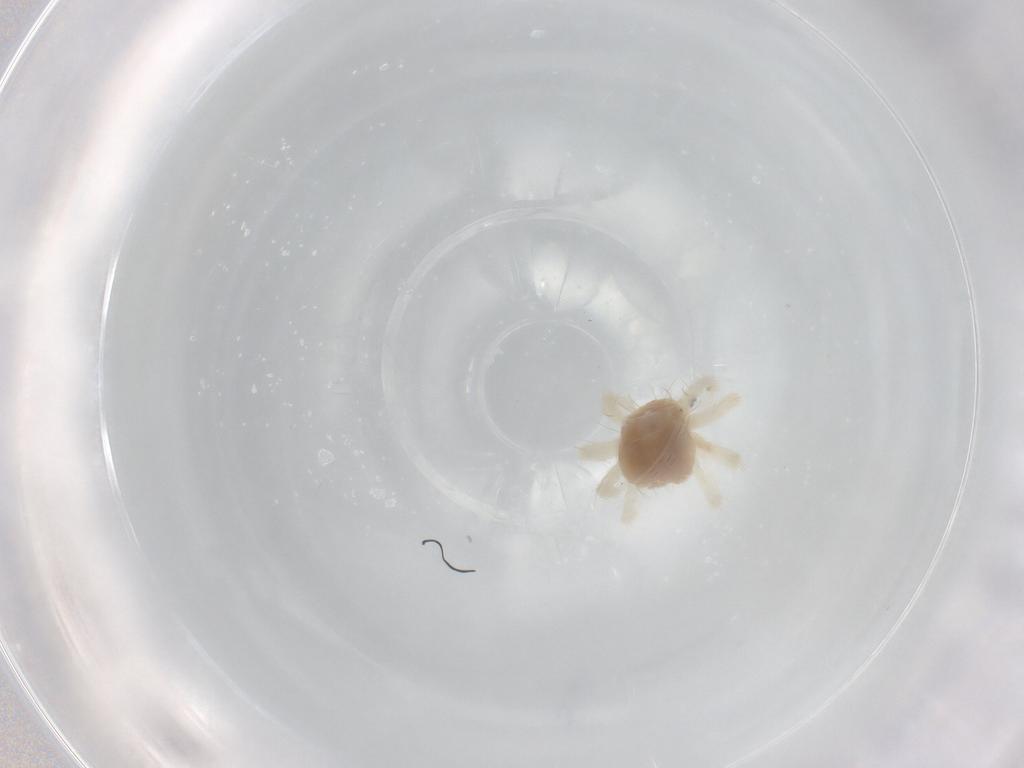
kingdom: Animalia
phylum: Arthropoda
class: Arachnida
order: Trombidiformes
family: Anystidae
